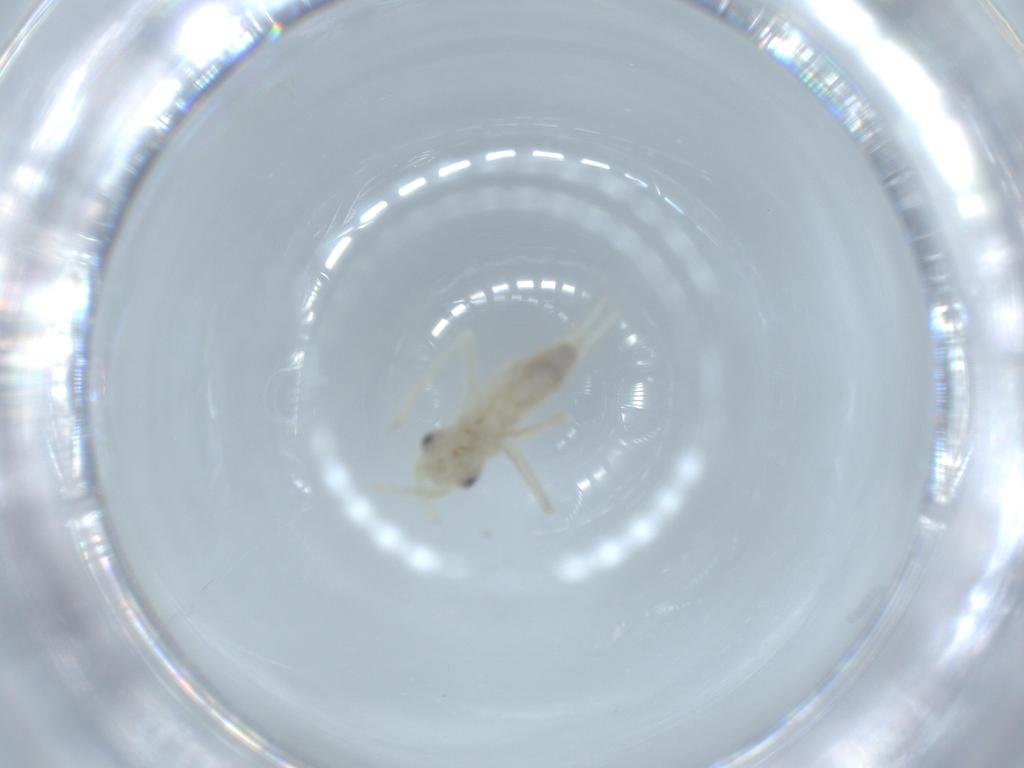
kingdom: Animalia
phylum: Arthropoda
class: Insecta
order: Orthoptera
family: Trigonidiidae
